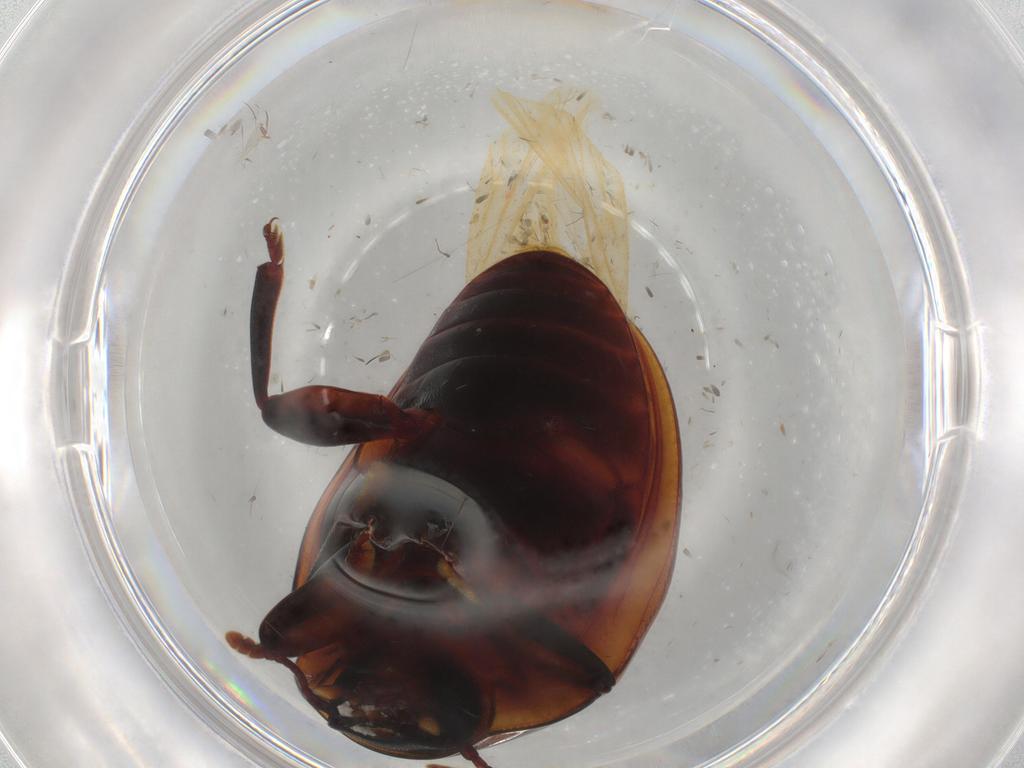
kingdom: Animalia
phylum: Arthropoda
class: Insecta
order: Coleoptera
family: Zopheridae
